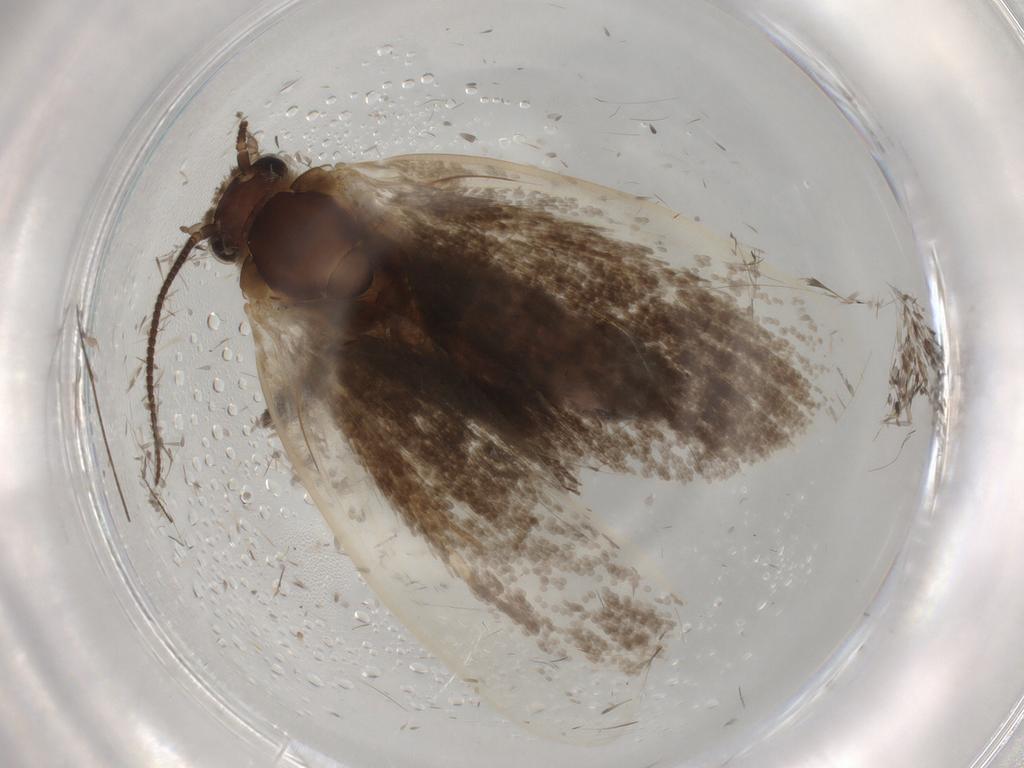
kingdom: Animalia
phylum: Arthropoda
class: Insecta
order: Lepidoptera
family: Tineidae
